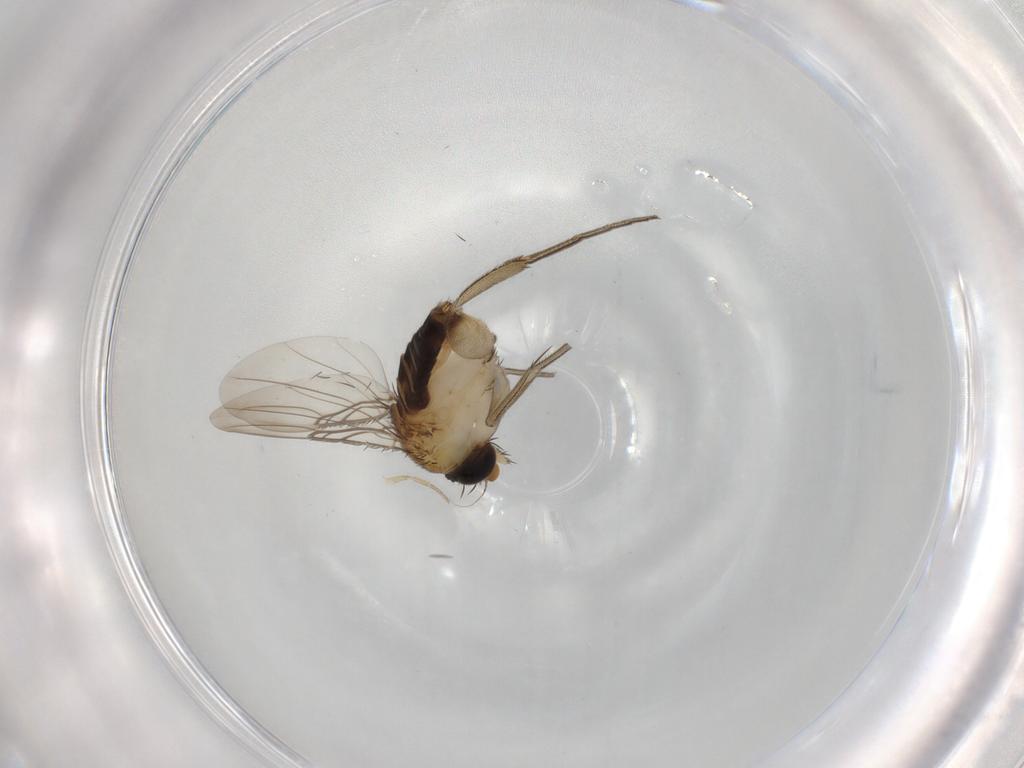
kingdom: Animalia
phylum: Arthropoda
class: Insecta
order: Diptera
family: Phoridae
